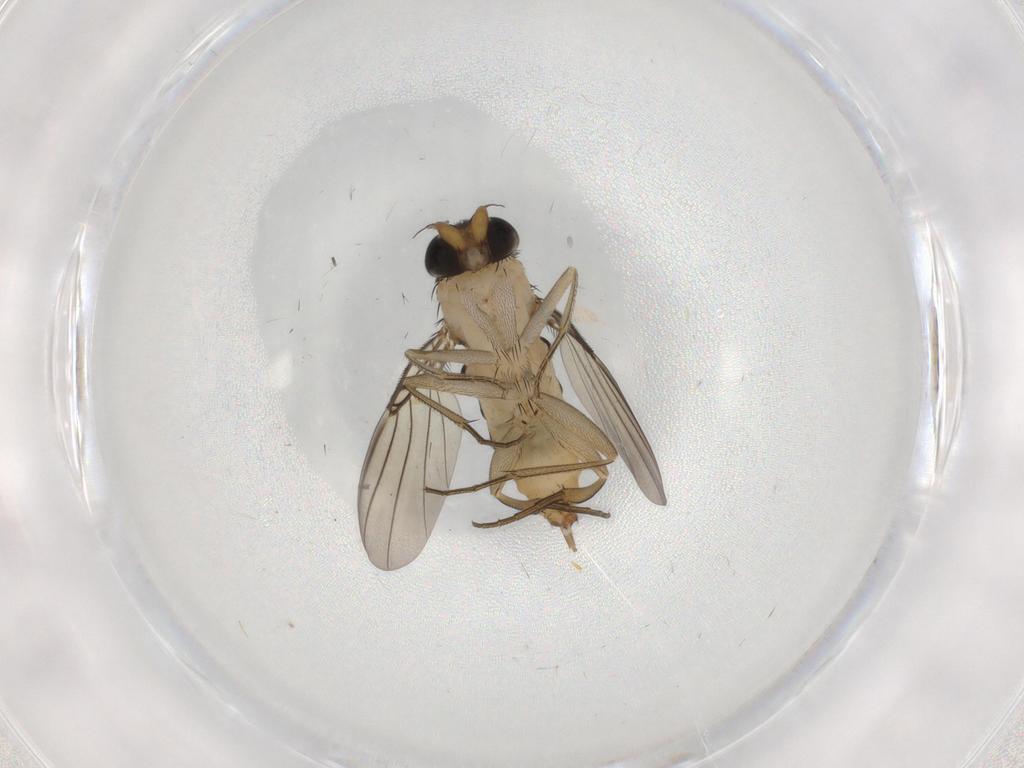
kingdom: Animalia
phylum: Arthropoda
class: Insecta
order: Diptera
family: Phoridae
